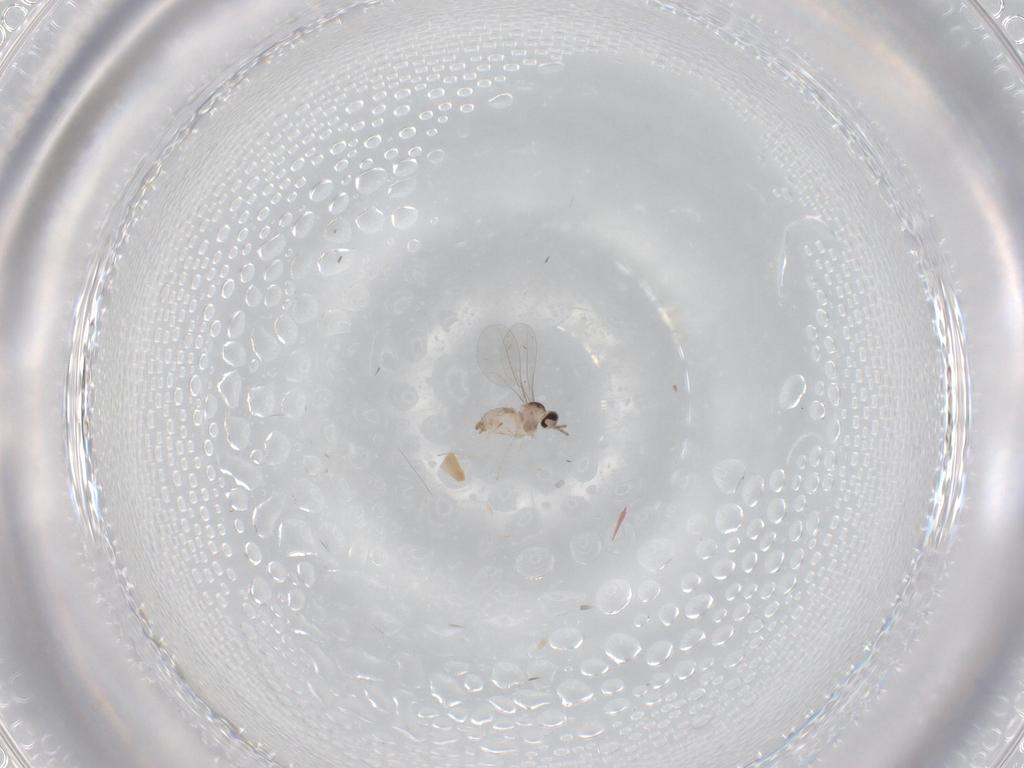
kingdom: Animalia
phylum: Arthropoda
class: Insecta
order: Diptera
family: Cecidomyiidae
